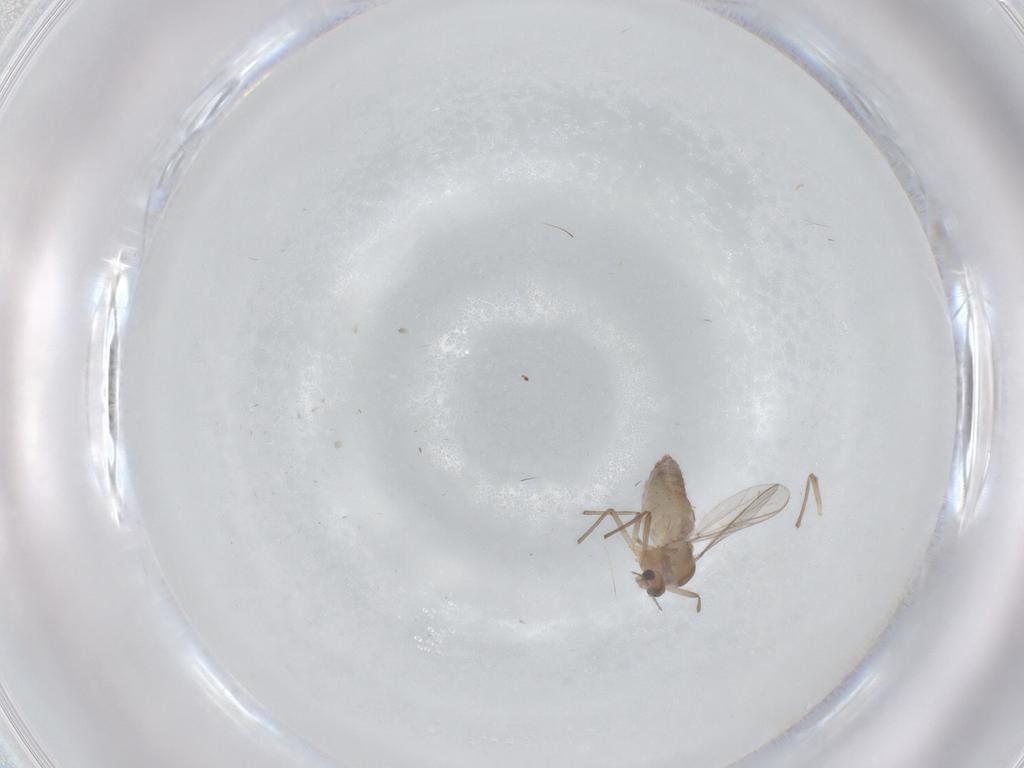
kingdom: Animalia
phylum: Arthropoda
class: Insecta
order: Diptera
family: Chironomidae
